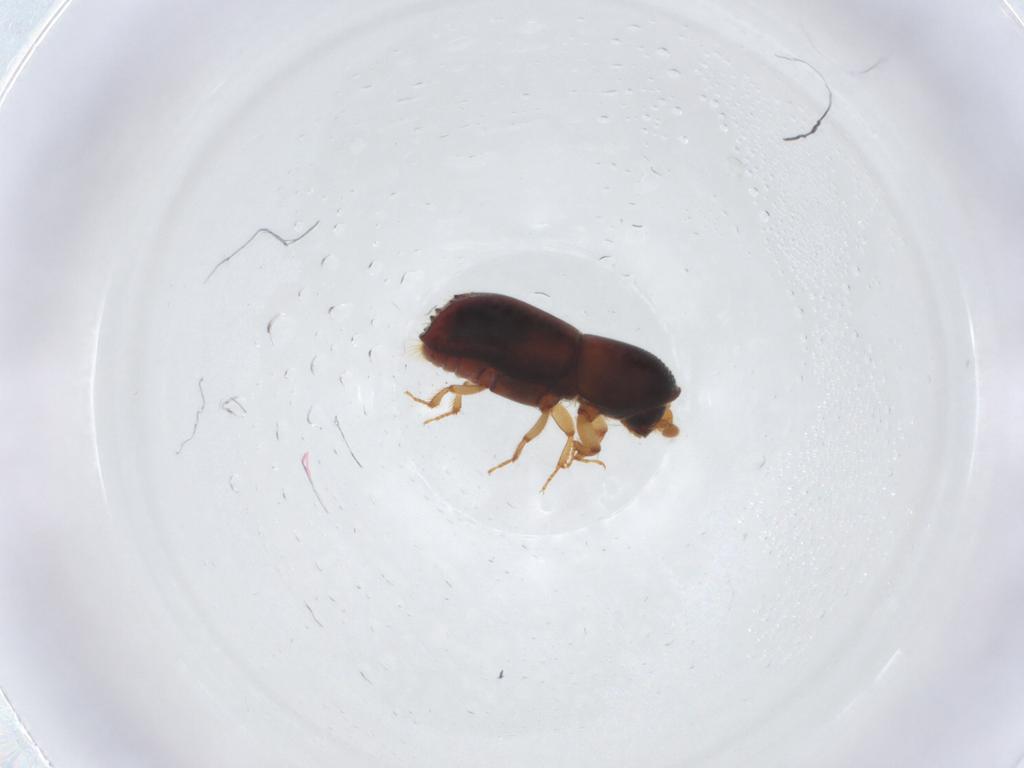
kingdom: Animalia
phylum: Arthropoda
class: Insecta
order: Coleoptera
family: Curculionidae
